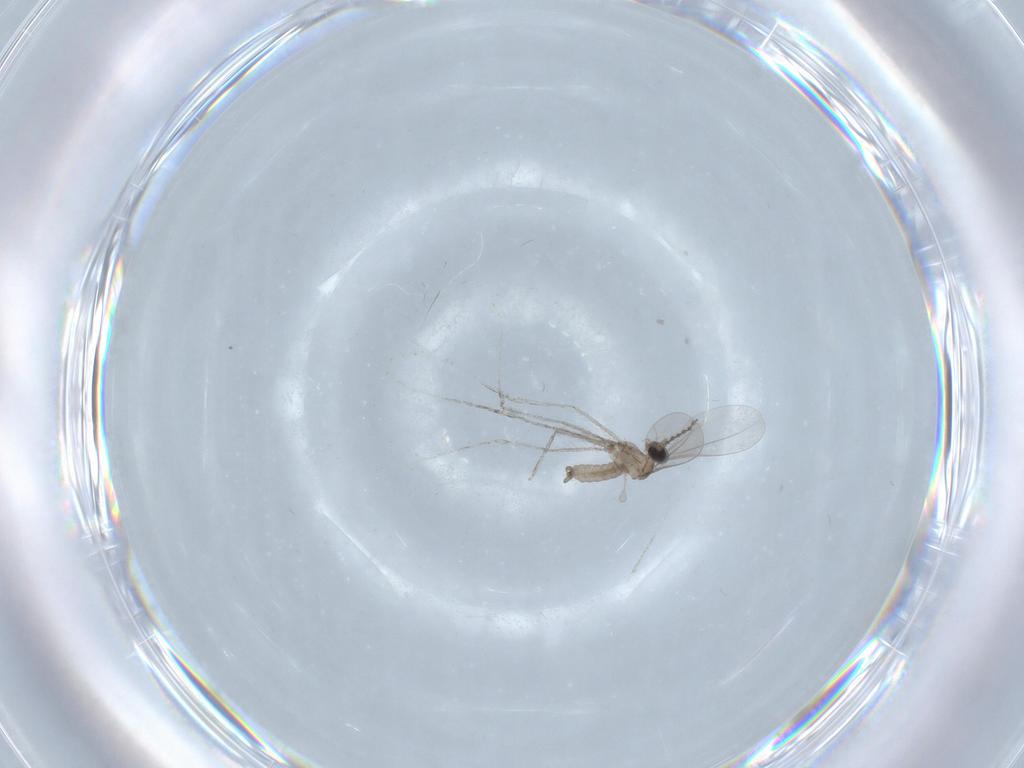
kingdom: Animalia
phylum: Arthropoda
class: Insecta
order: Diptera
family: Cecidomyiidae
